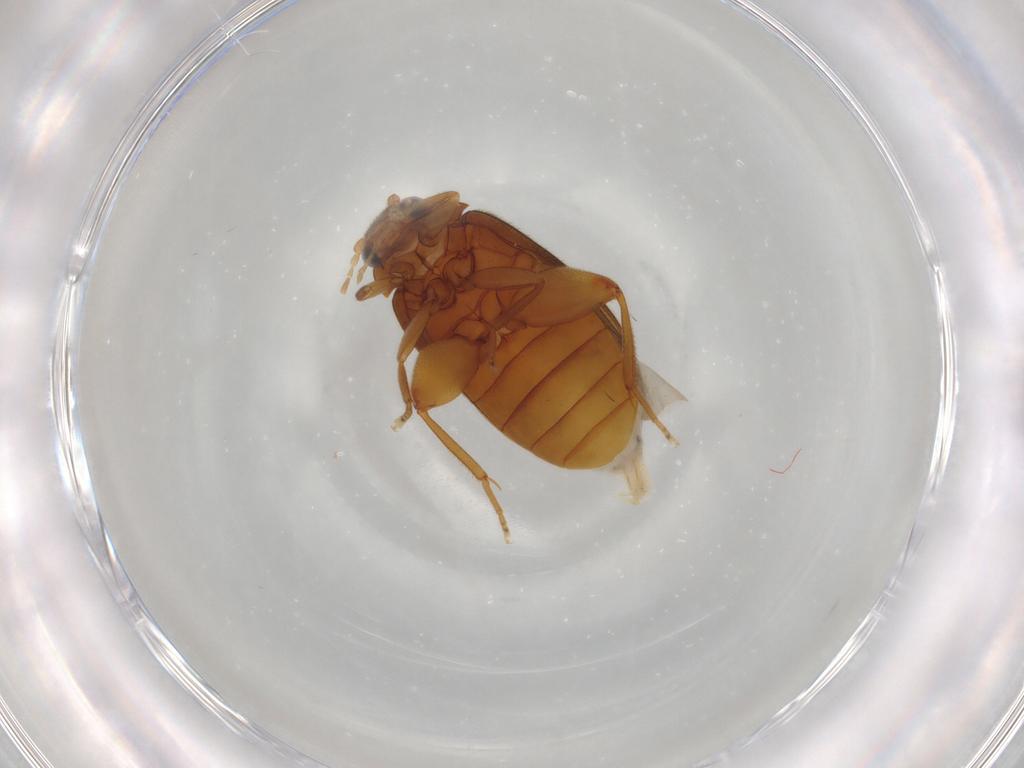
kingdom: Animalia
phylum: Arthropoda
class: Insecta
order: Coleoptera
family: Scirtidae
